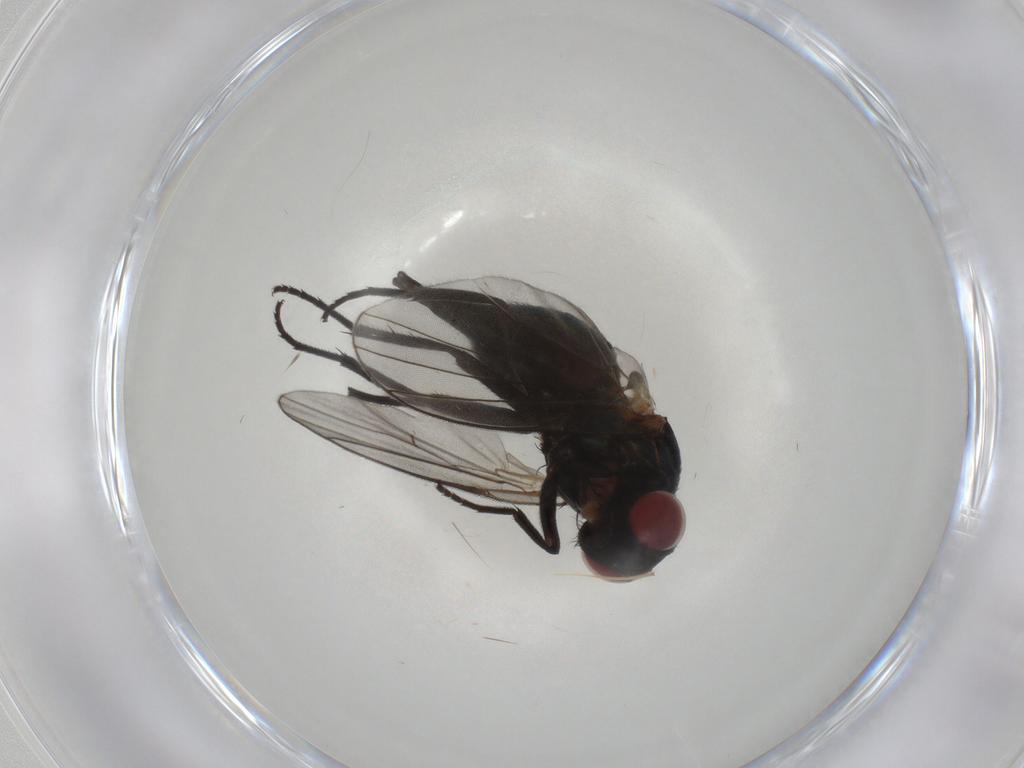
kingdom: Animalia
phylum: Arthropoda
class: Insecta
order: Diptera
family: Agromyzidae
